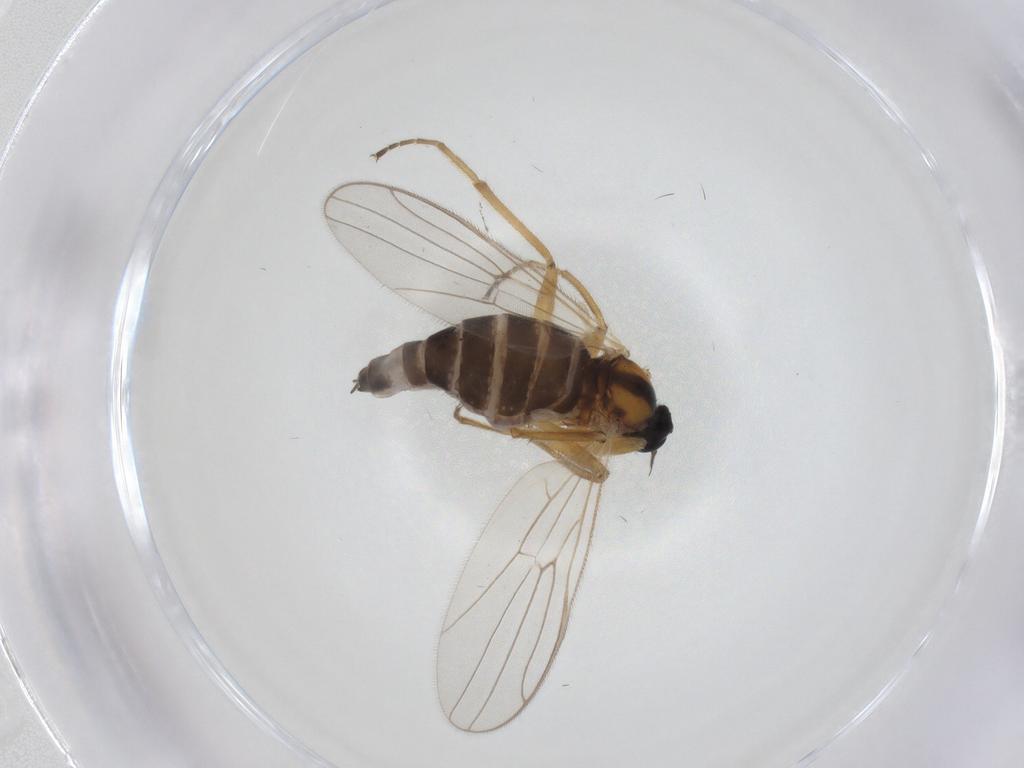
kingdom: Animalia
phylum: Arthropoda
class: Insecta
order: Diptera
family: Hybotidae
